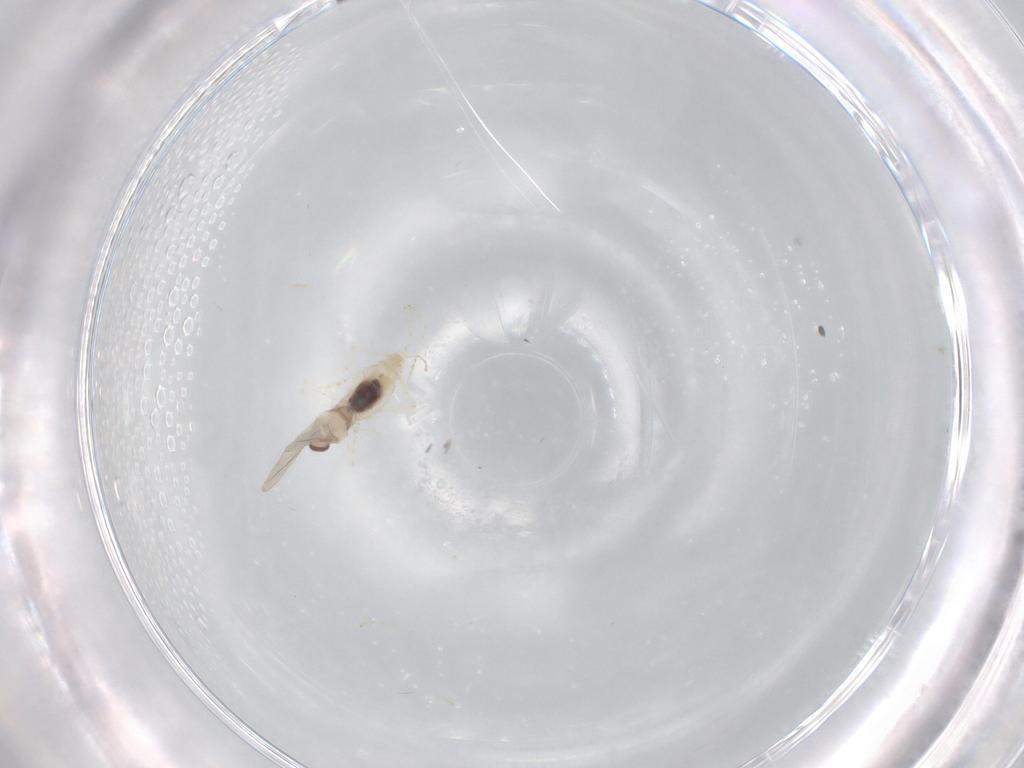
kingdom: Animalia
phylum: Arthropoda
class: Insecta
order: Diptera
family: Cecidomyiidae
